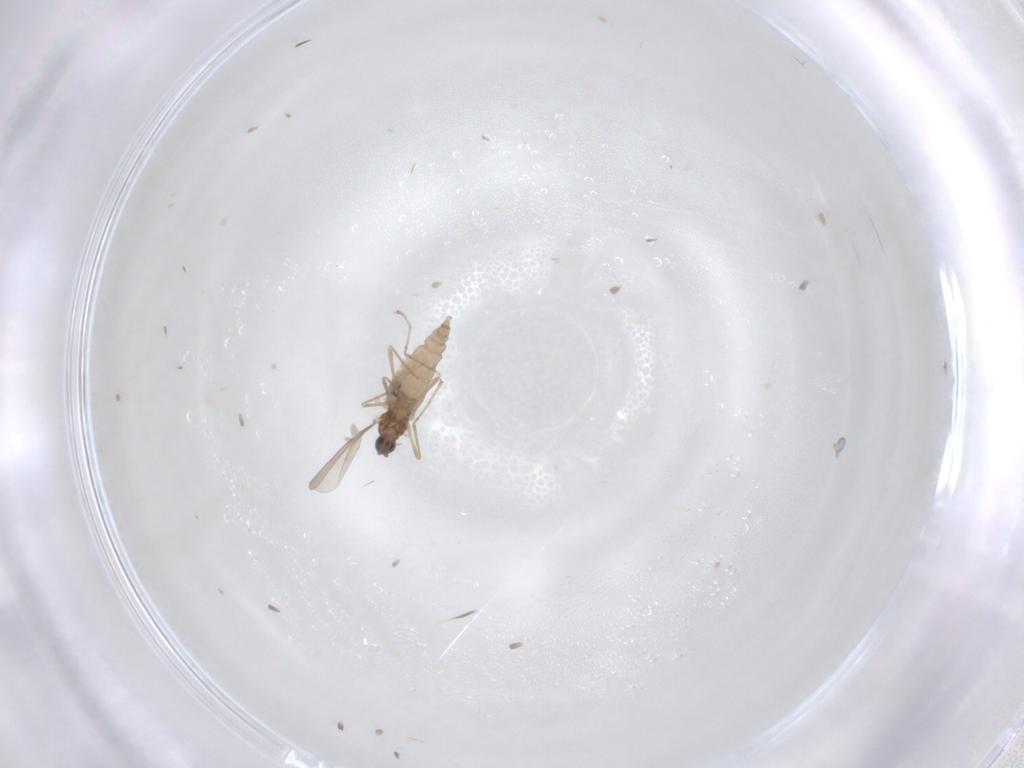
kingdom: Animalia
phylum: Arthropoda
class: Insecta
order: Diptera
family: Cecidomyiidae
